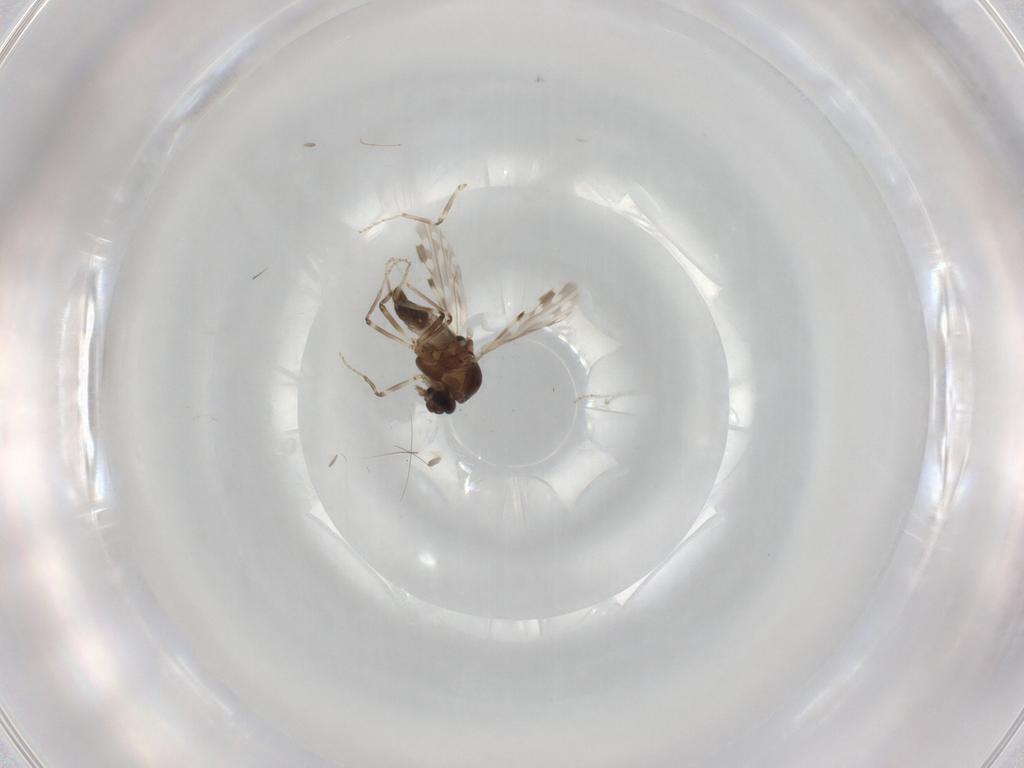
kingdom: Animalia
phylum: Arthropoda
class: Insecta
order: Diptera
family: Ceratopogonidae
